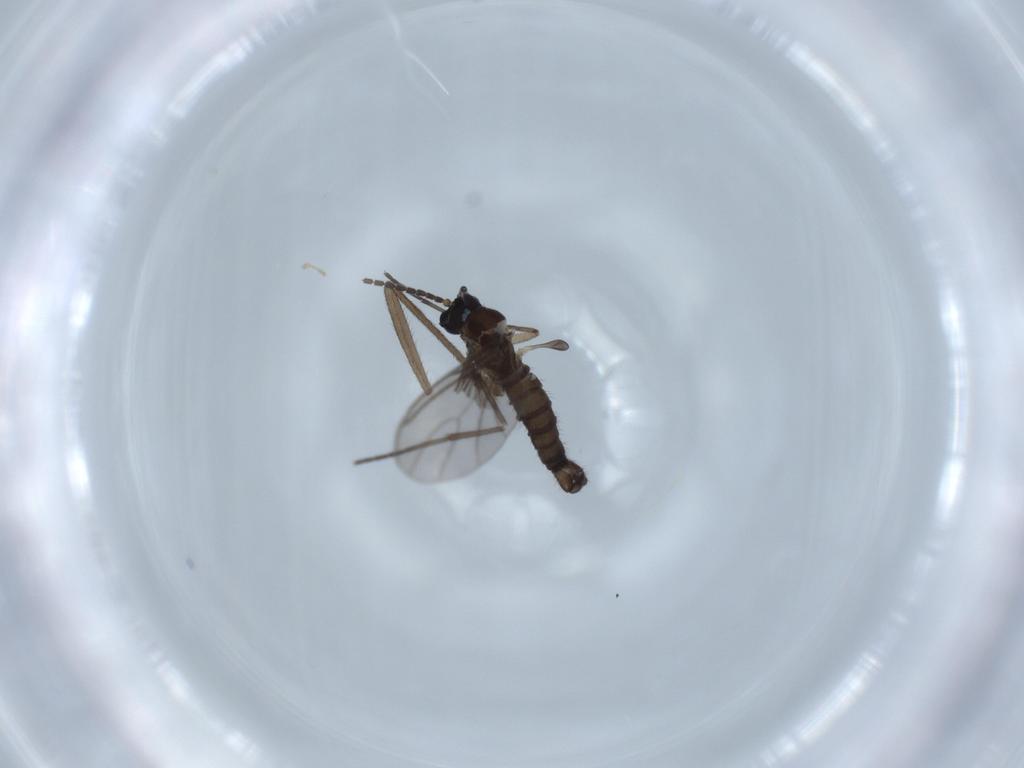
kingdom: Animalia
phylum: Arthropoda
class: Insecta
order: Diptera
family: Sciaridae
